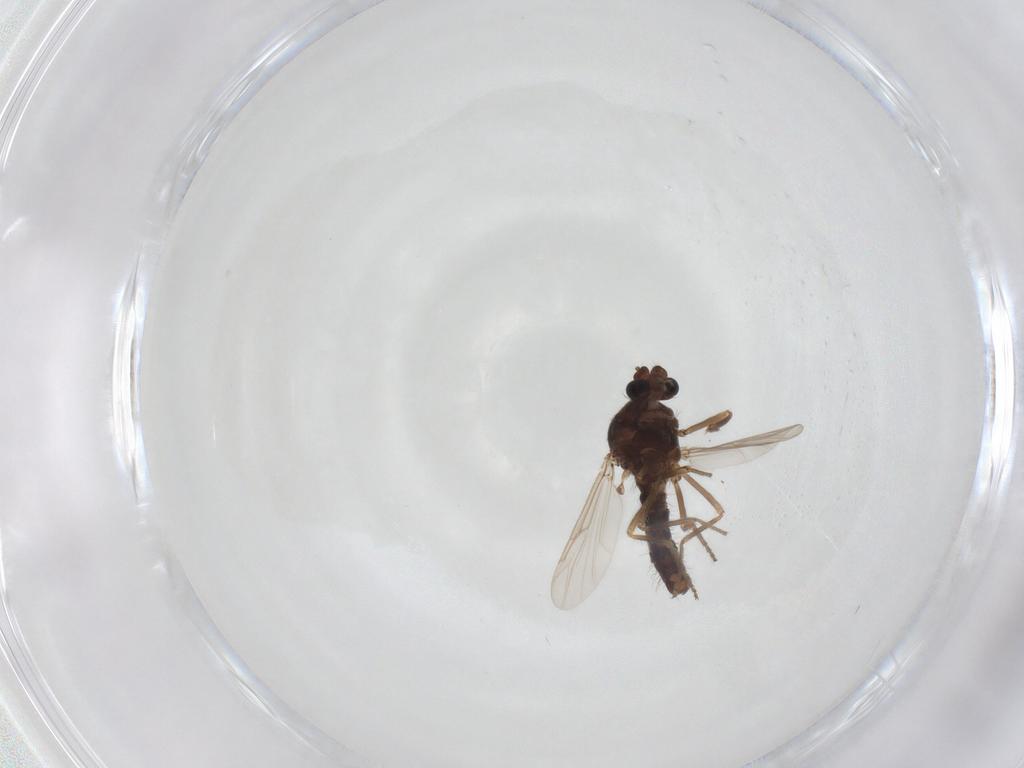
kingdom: Animalia
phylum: Arthropoda
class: Insecta
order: Diptera
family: Ceratopogonidae
